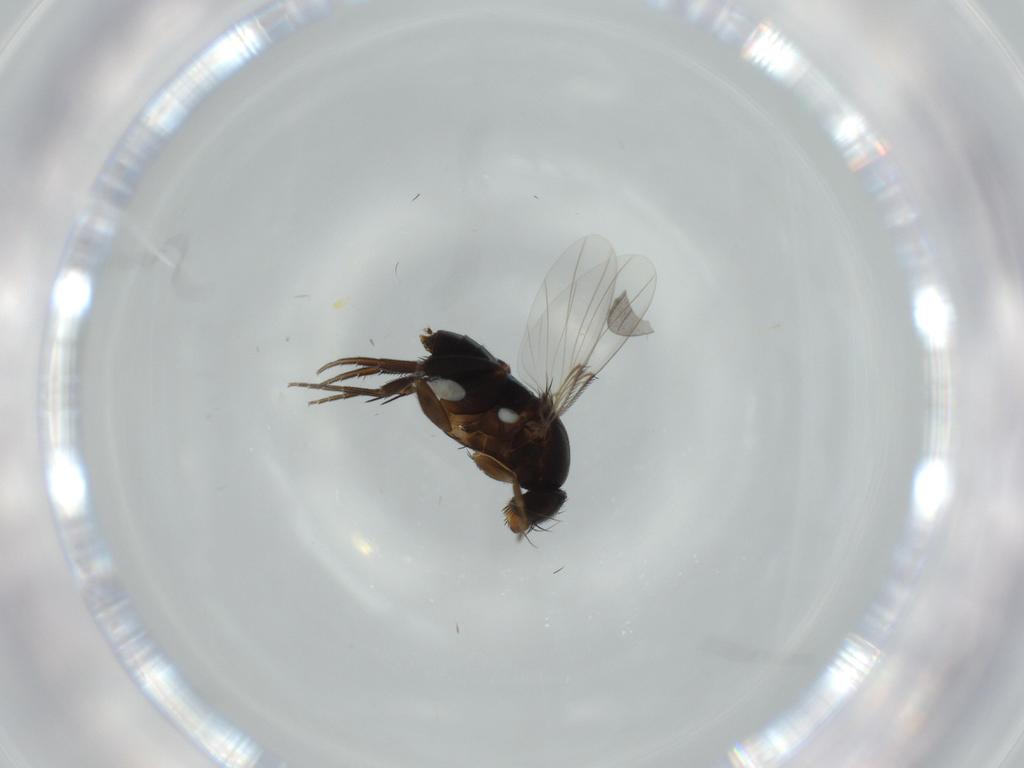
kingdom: Animalia
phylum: Arthropoda
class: Insecta
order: Diptera
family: Phoridae
